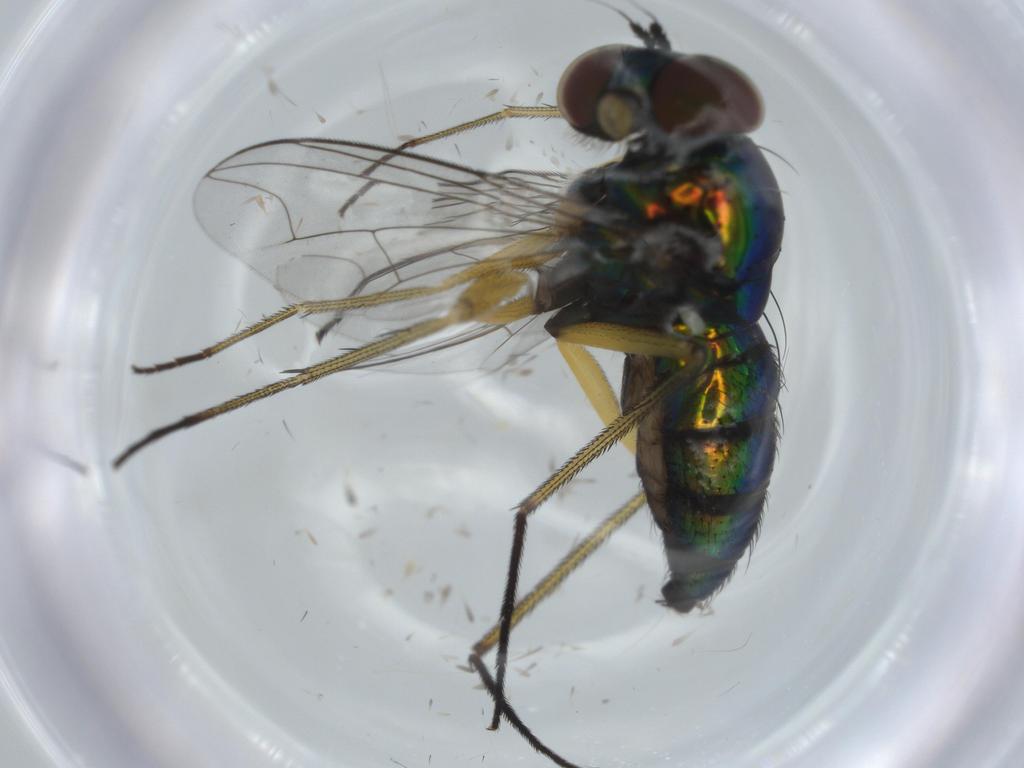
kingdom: Animalia
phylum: Arthropoda
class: Insecta
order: Diptera
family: Dolichopodidae
